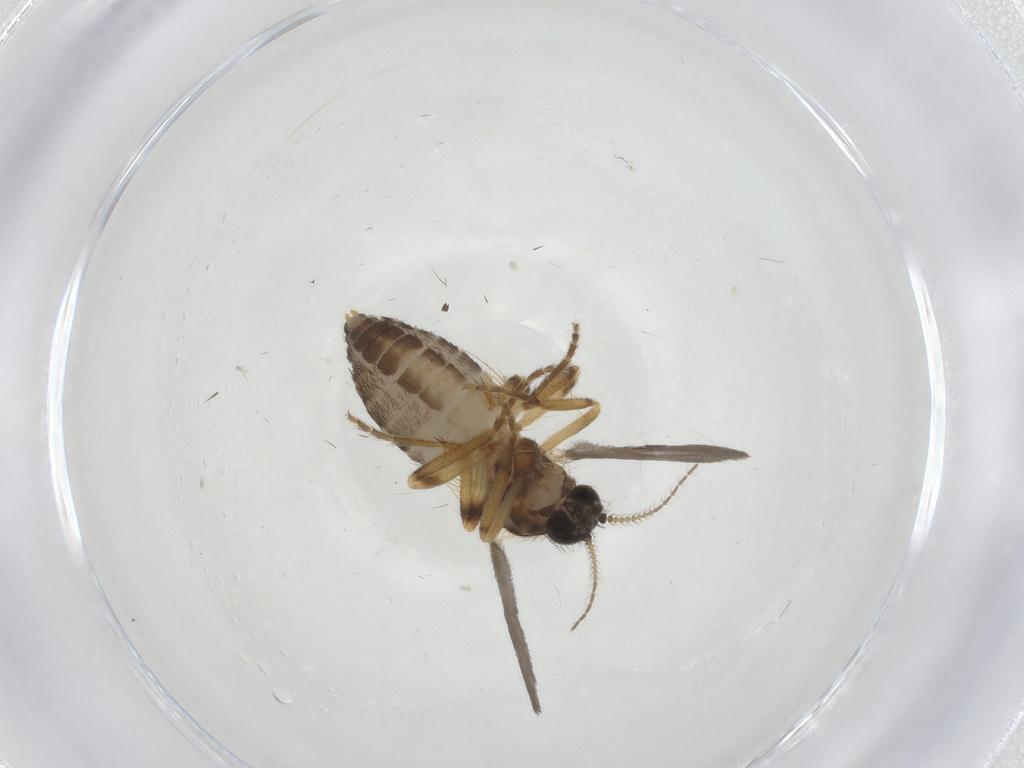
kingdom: Animalia
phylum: Arthropoda
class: Insecta
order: Diptera
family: Ceratopogonidae
